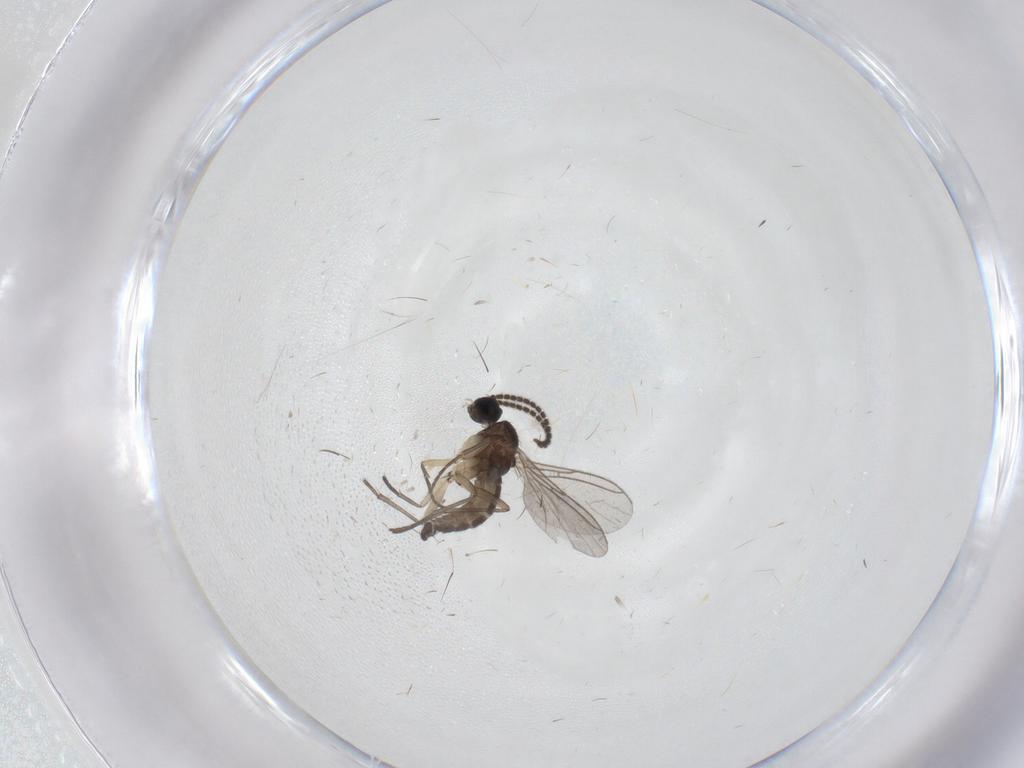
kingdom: Animalia
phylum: Arthropoda
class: Insecta
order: Diptera
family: Sciaridae
